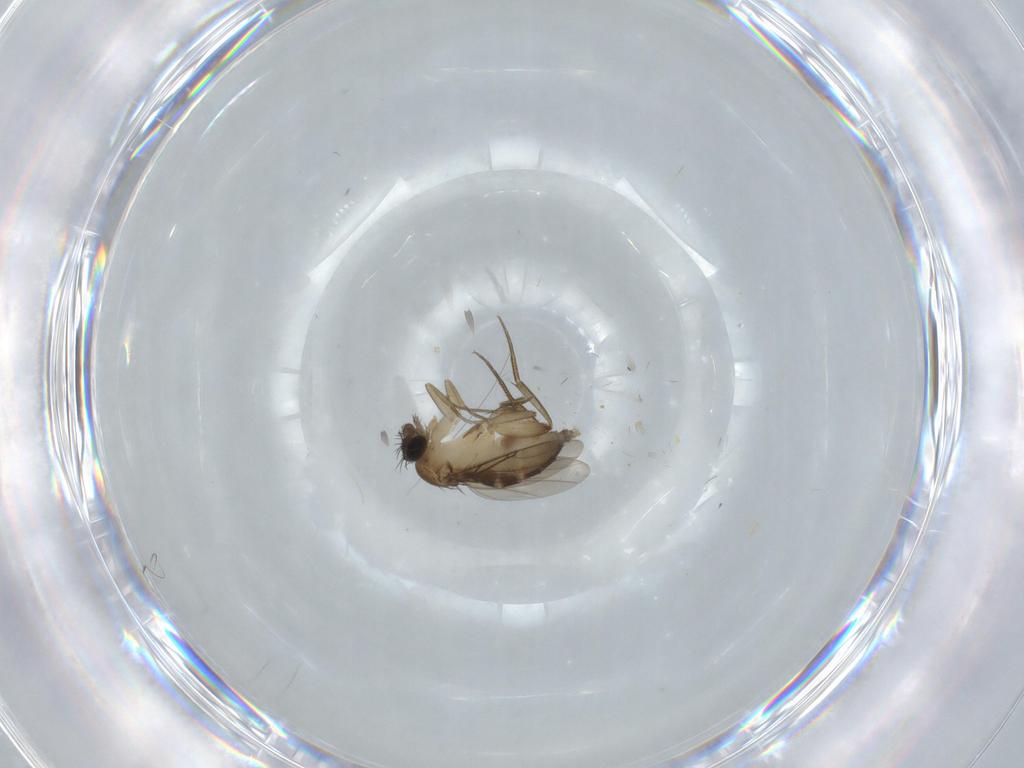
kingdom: Animalia
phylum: Arthropoda
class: Insecta
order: Diptera
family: Phoridae
